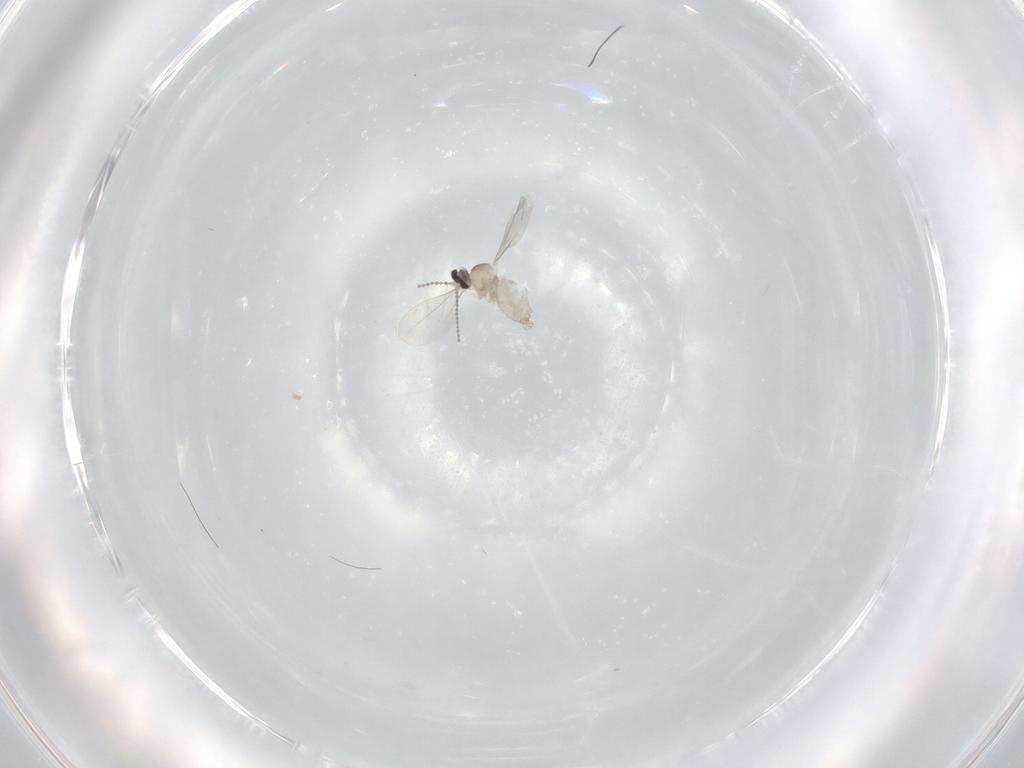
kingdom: Animalia
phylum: Arthropoda
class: Insecta
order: Diptera
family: Cecidomyiidae
